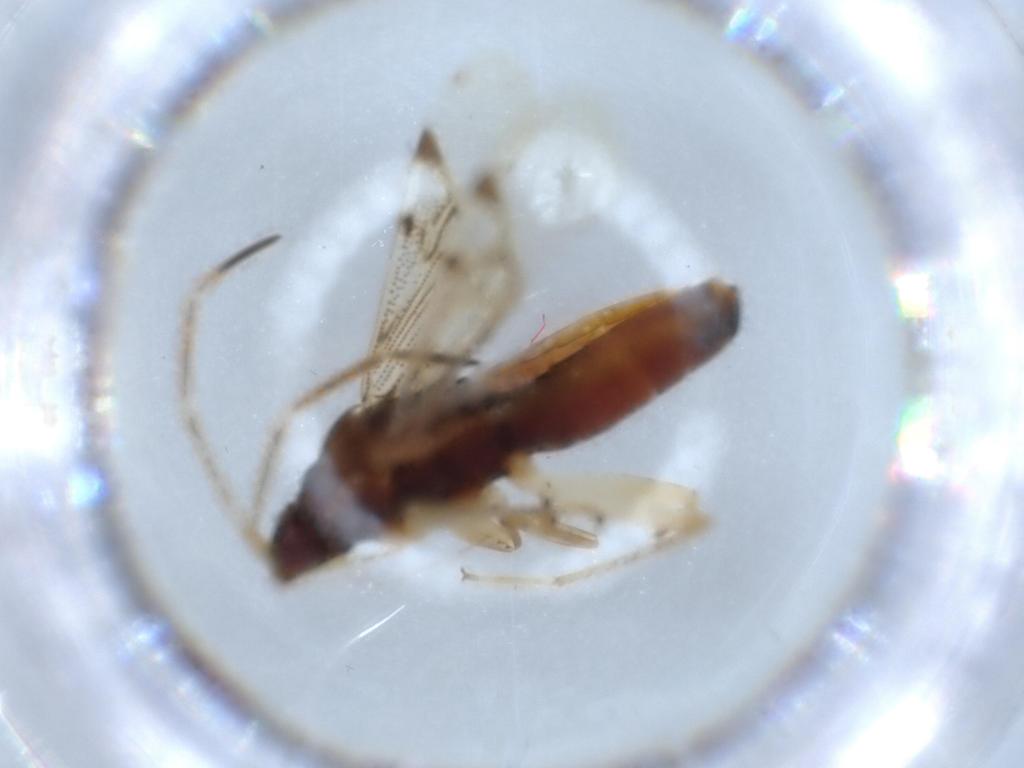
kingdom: Animalia
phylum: Arthropoda
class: Insecta
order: Hemiptera
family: Rhyparochromidae
